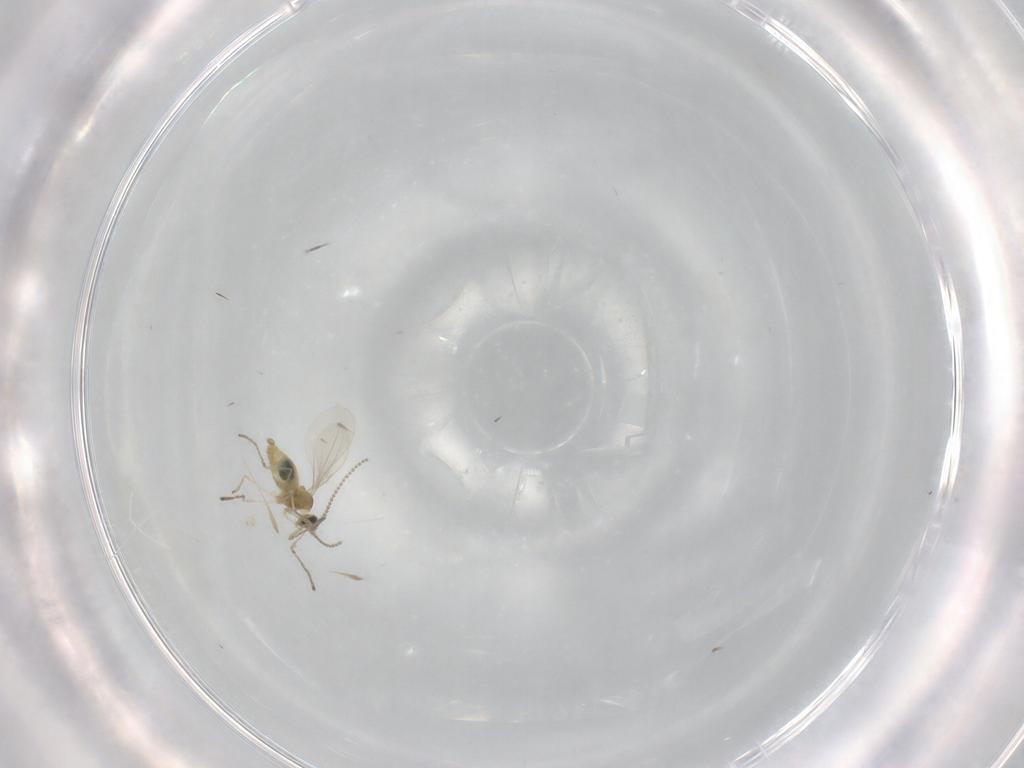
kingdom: Animalia
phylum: Arthropoda
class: Insecta
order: Diptera
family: Cecidomyiidae
